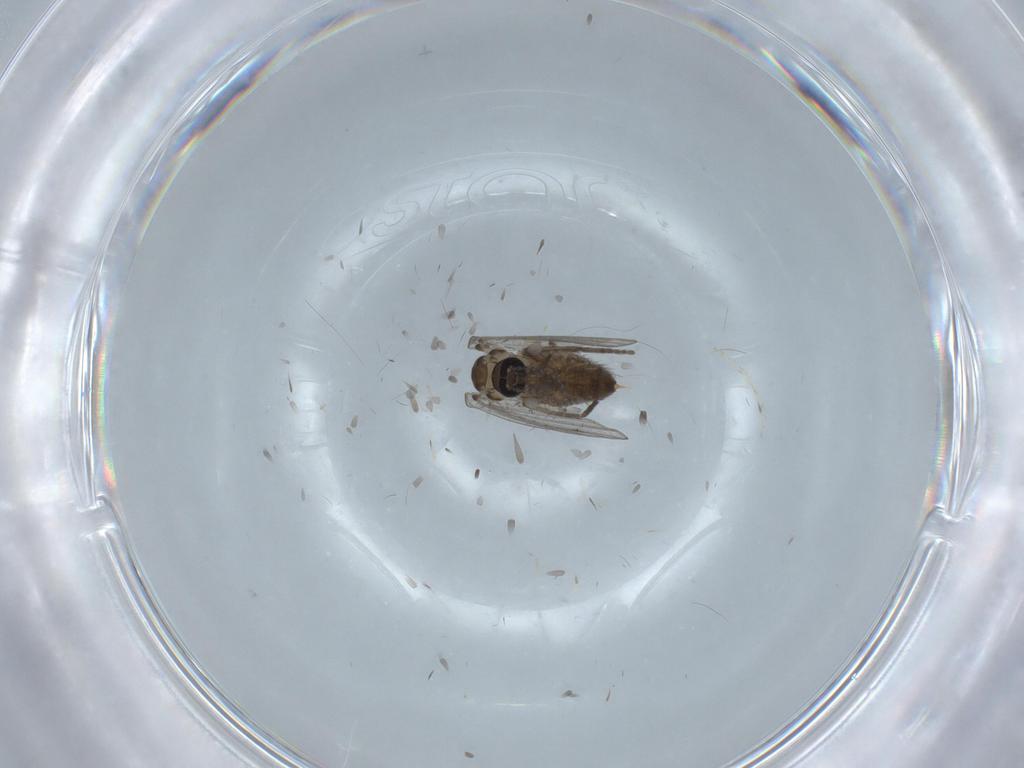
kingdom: Animalia
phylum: Arthropoda
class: Insecta
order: Diptera
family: Psychodidae
